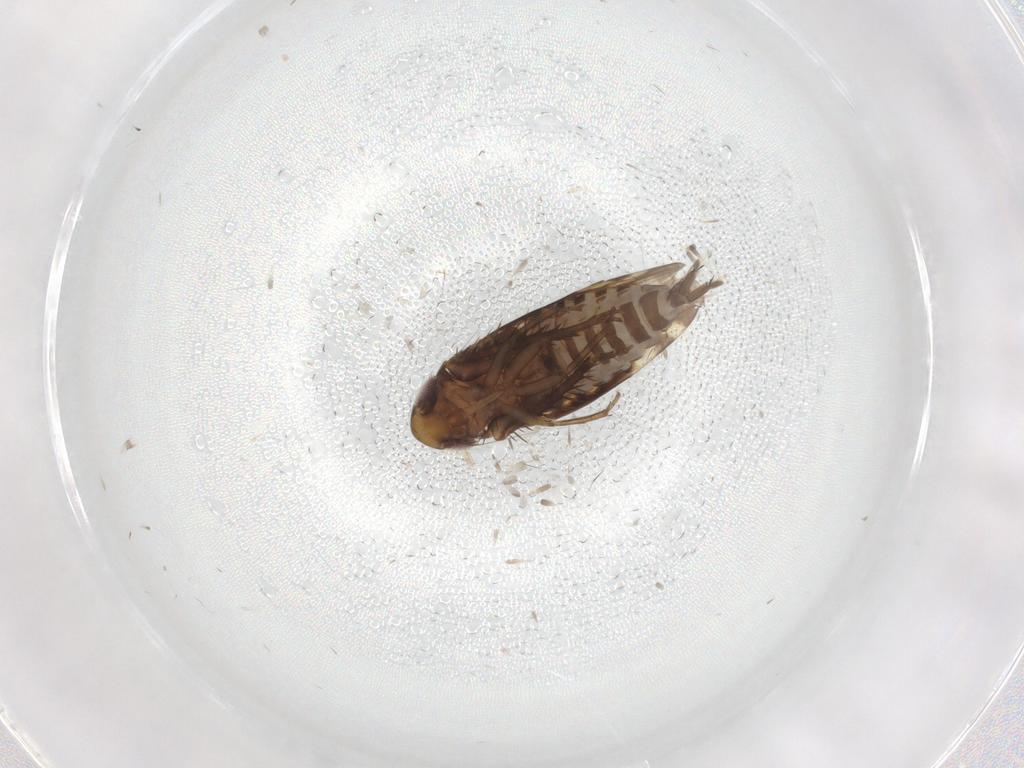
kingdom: Animalia
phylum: Arthropoda
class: Insecta
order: Hemiptera
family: Cicadellidae
